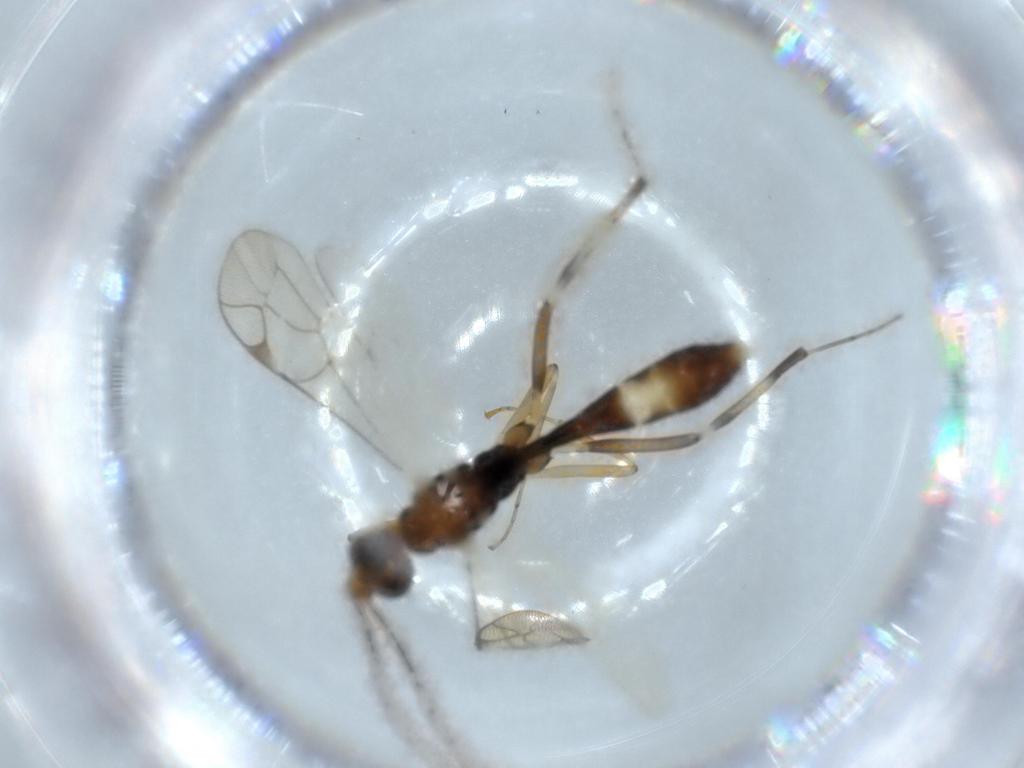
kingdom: Animalia
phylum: Arthropoda
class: Insecta
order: Hymenoptera
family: Ichneumonidae
